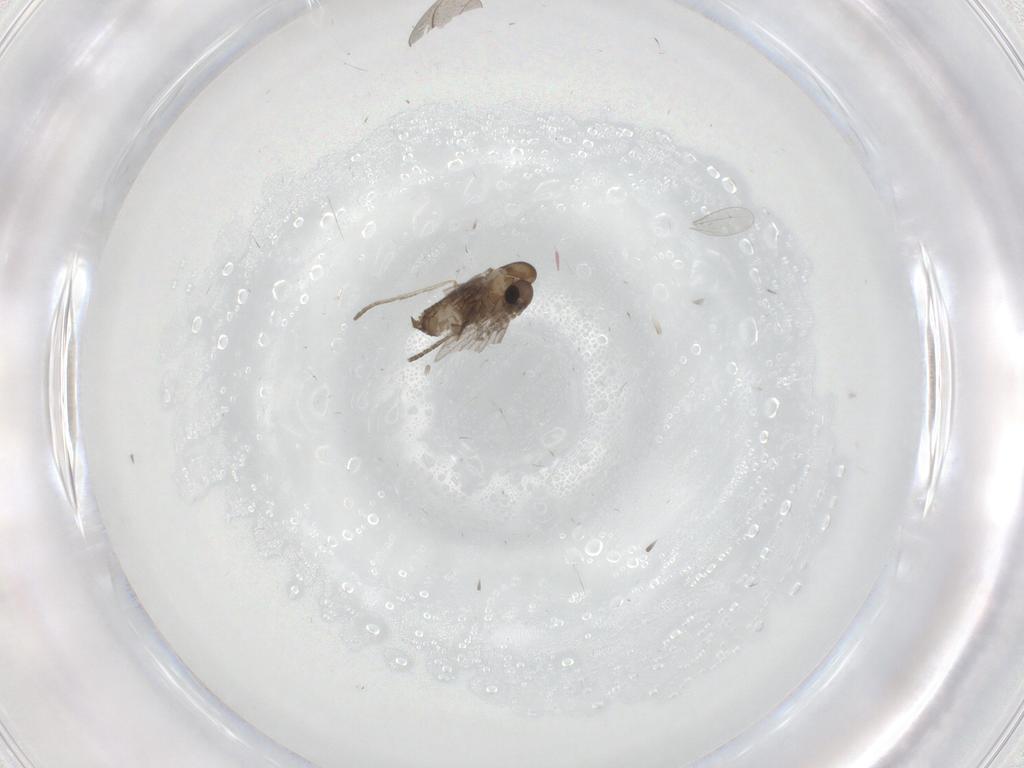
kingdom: Animalia
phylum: Arthropoda
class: Insecta
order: Diptera
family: Cecidomyiidae
